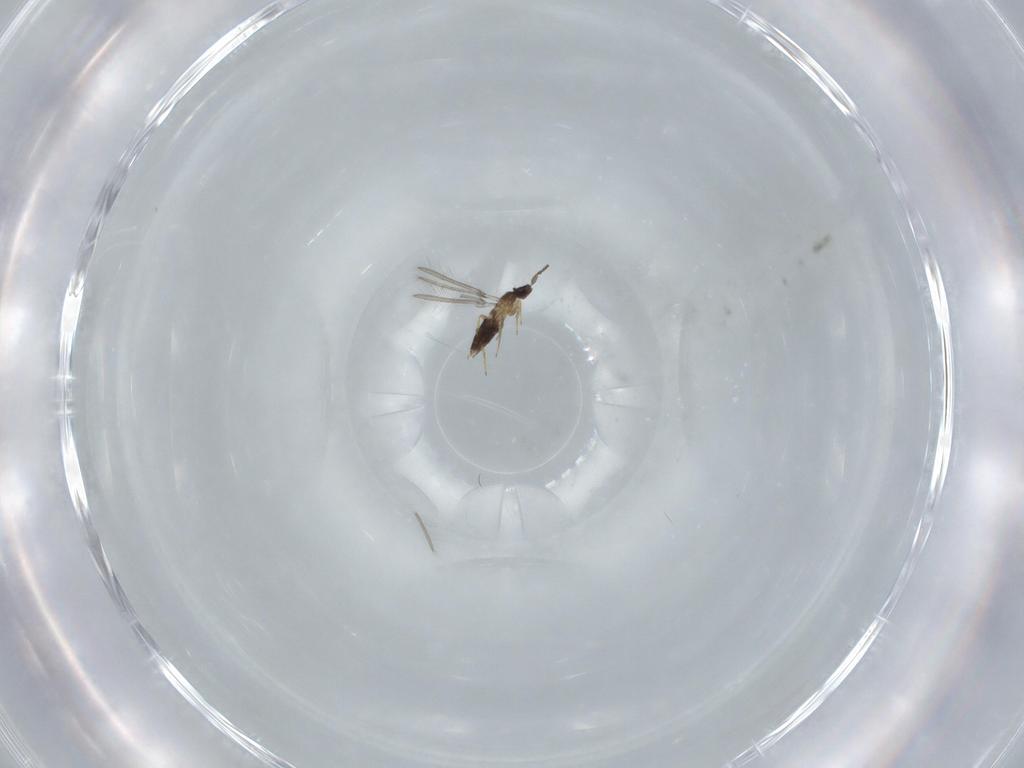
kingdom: Animalia
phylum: Arthropoda
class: Insecta
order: Hymenoptera
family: Mymaridae
